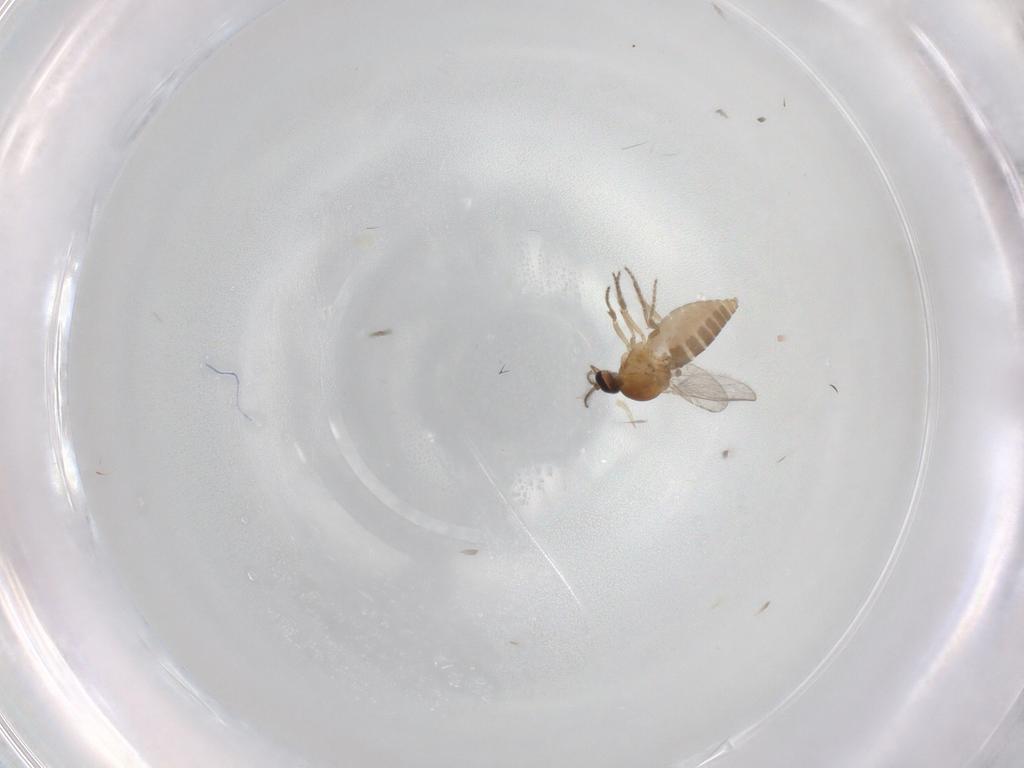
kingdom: Animalia
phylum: Arthropoda
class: Insecta
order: Diptera
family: Ceratopogonidae
